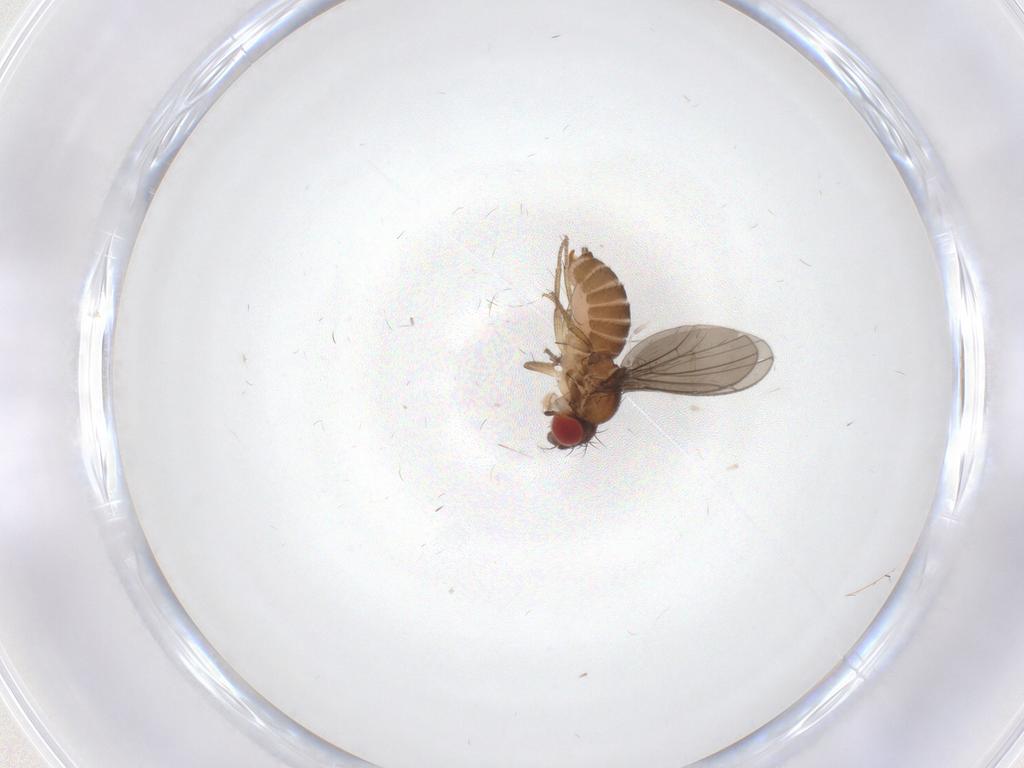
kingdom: Animalia
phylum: Arthropoda
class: Insecta
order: Diptera
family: Drosophilidae
